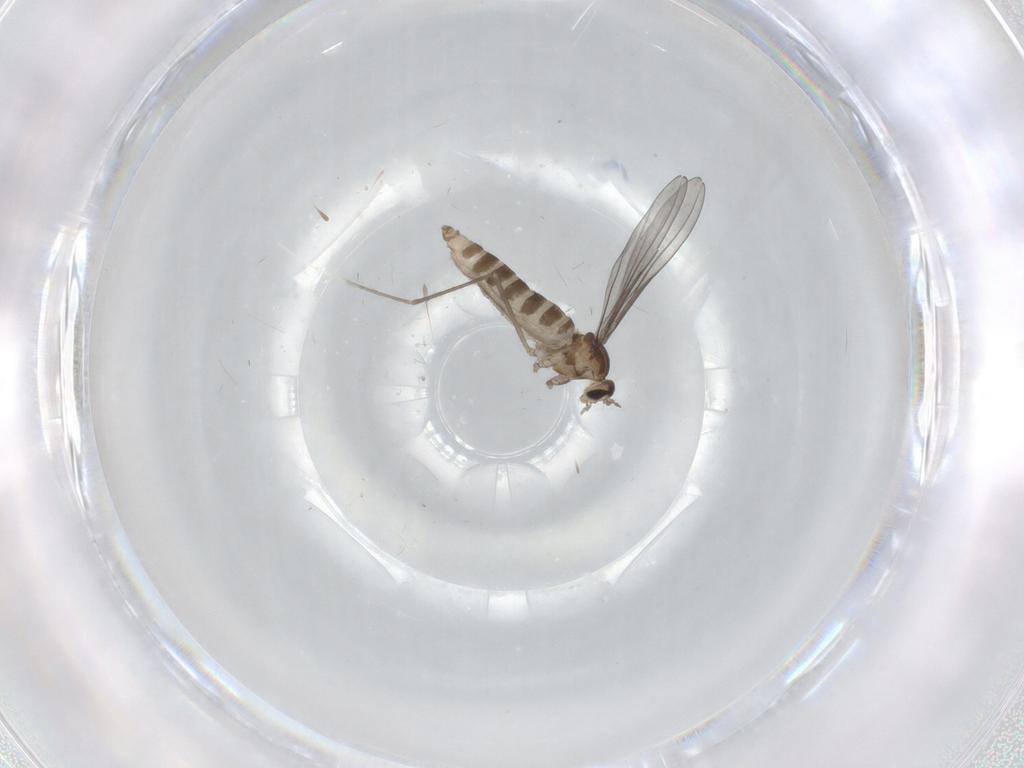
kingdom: Animalia
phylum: Arthropoda
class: Insecta
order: Diptera
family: Cecidomyiidae
